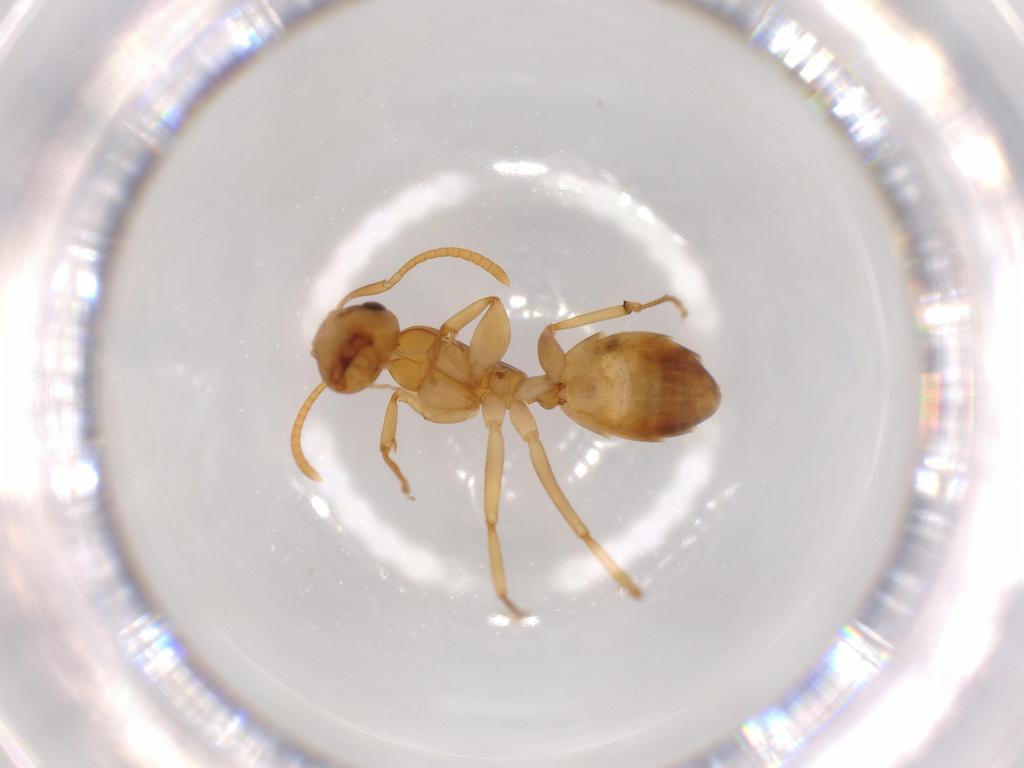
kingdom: Animalia
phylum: Arthropoda
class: Insecta
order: Hymenoptera
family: Formicidae
